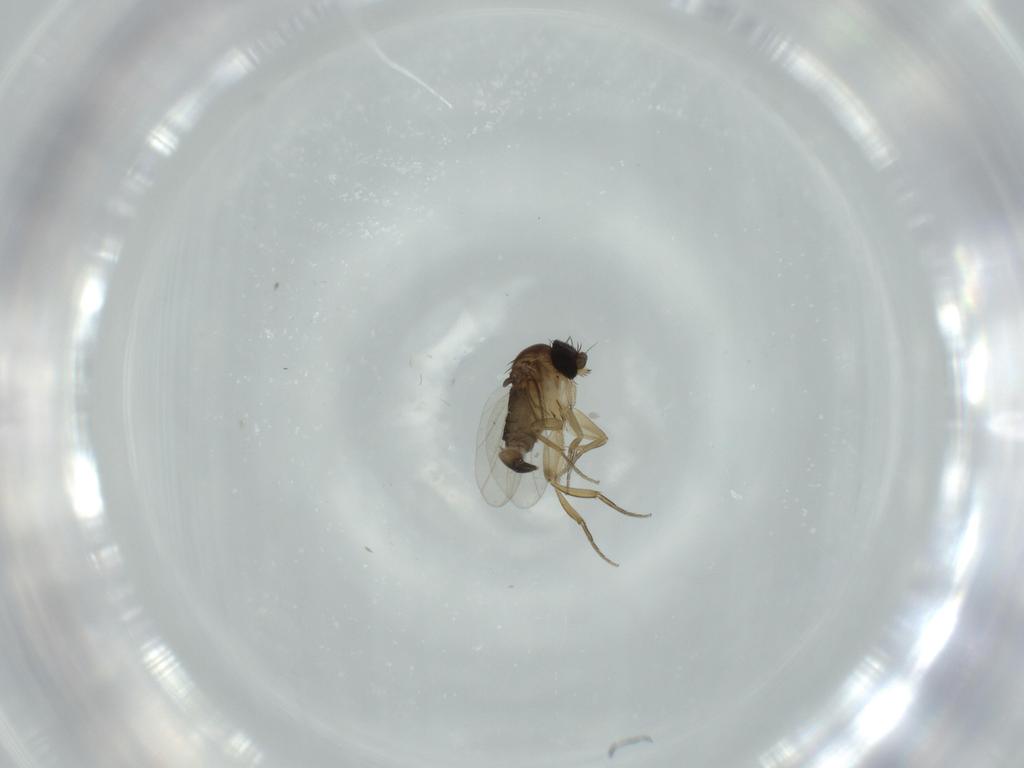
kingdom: Animalia
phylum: Arthropoda
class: Insecta
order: Diptera
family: Phoridae
